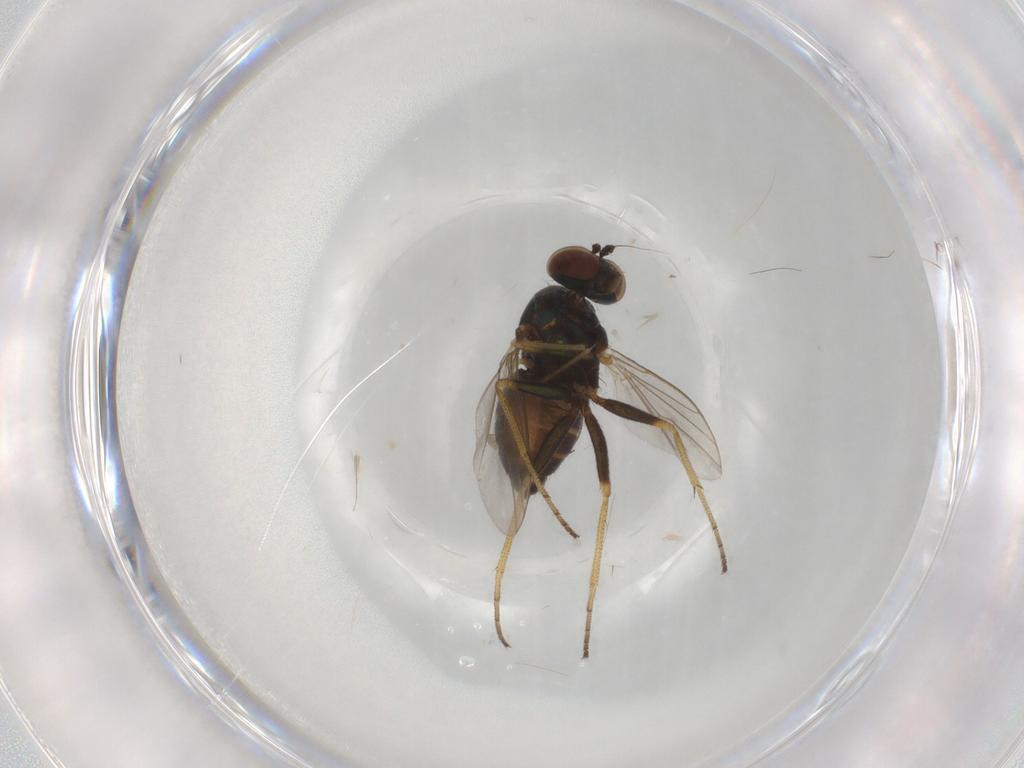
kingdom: Animalia
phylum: Arthropoda
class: Insecta
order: Diptera
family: Dolichopodidae
